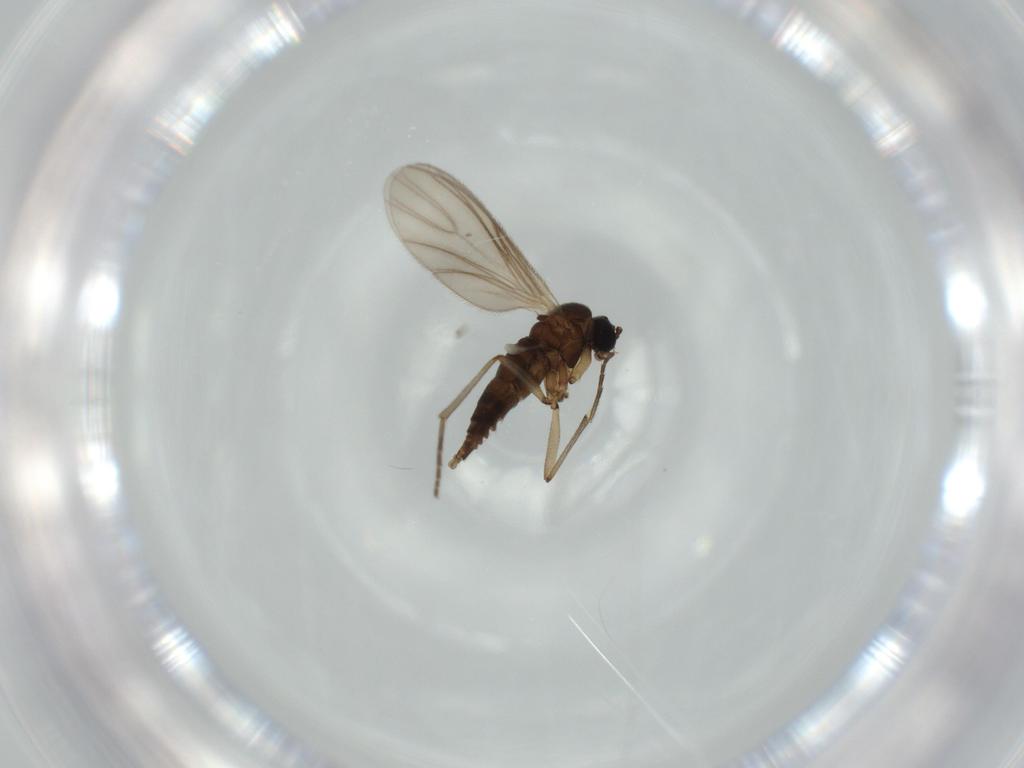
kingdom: Animalia
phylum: Arthropoda
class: Insecta
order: Diptera
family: Sciaridae
